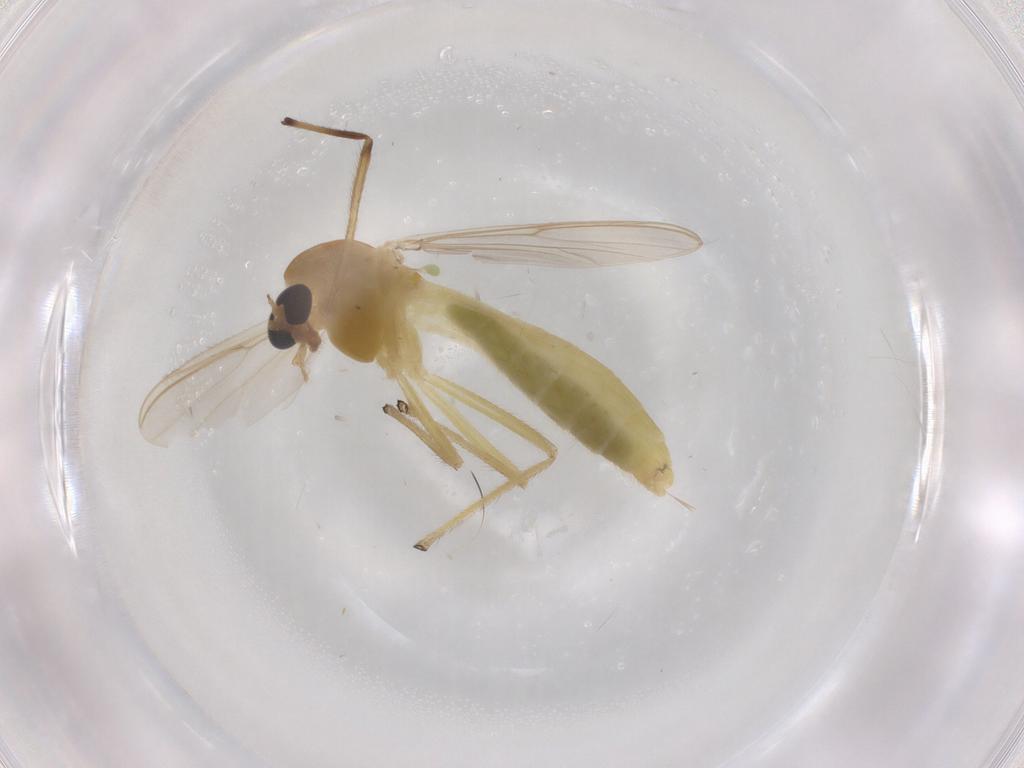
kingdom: Animalia
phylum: Arthropoda
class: Insecta
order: Diptera
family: Chironomidae
